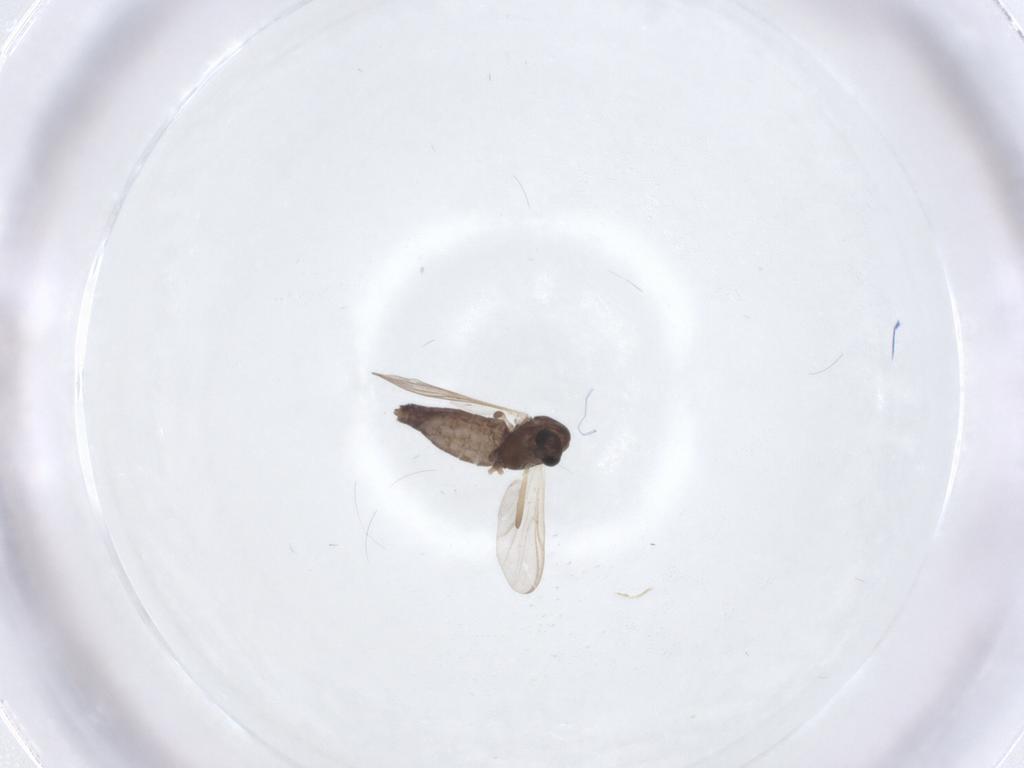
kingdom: Animalia
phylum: Arthropoda
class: Insecta
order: Diptera
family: Chironomidae
